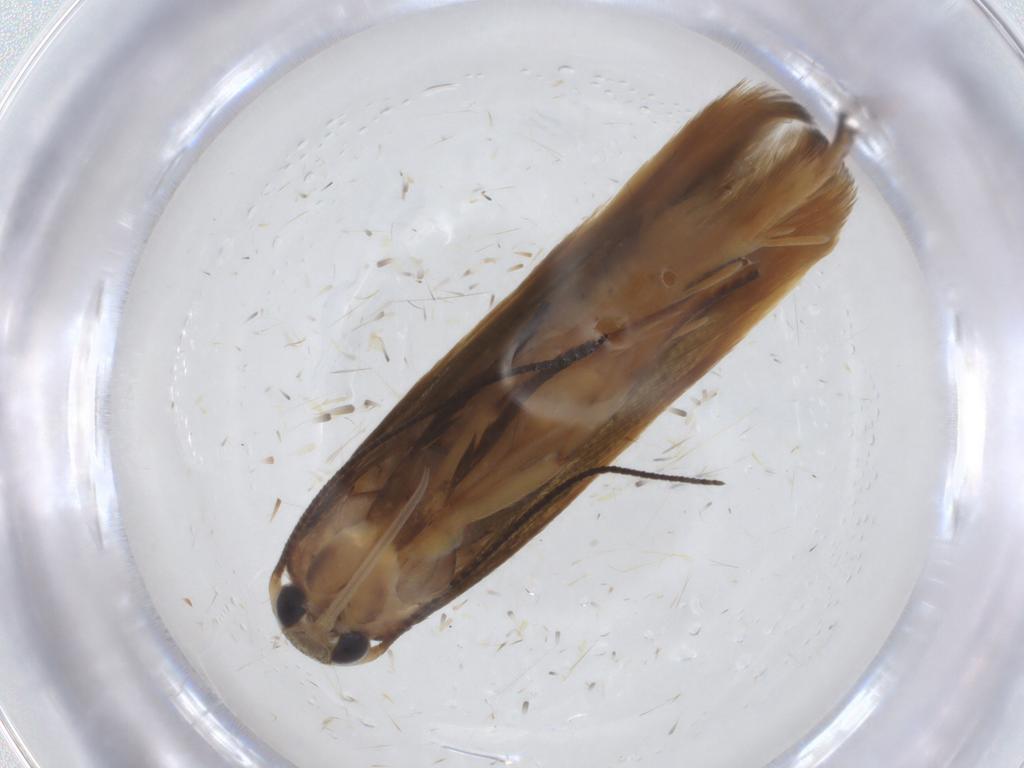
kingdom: Animalia
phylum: Arthropoda
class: Insecta
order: Lepidoptera
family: Stathmopodidae
